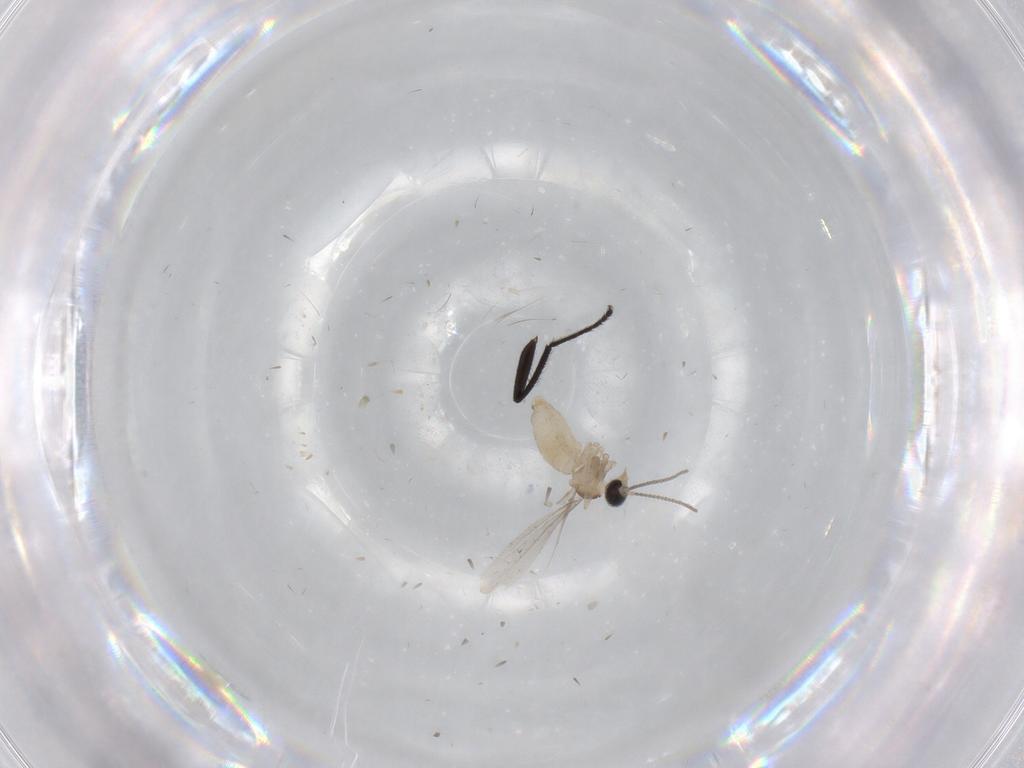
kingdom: Animalia
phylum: Arthropoda
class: Insecta
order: Diptera
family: Cecidomyiidae
